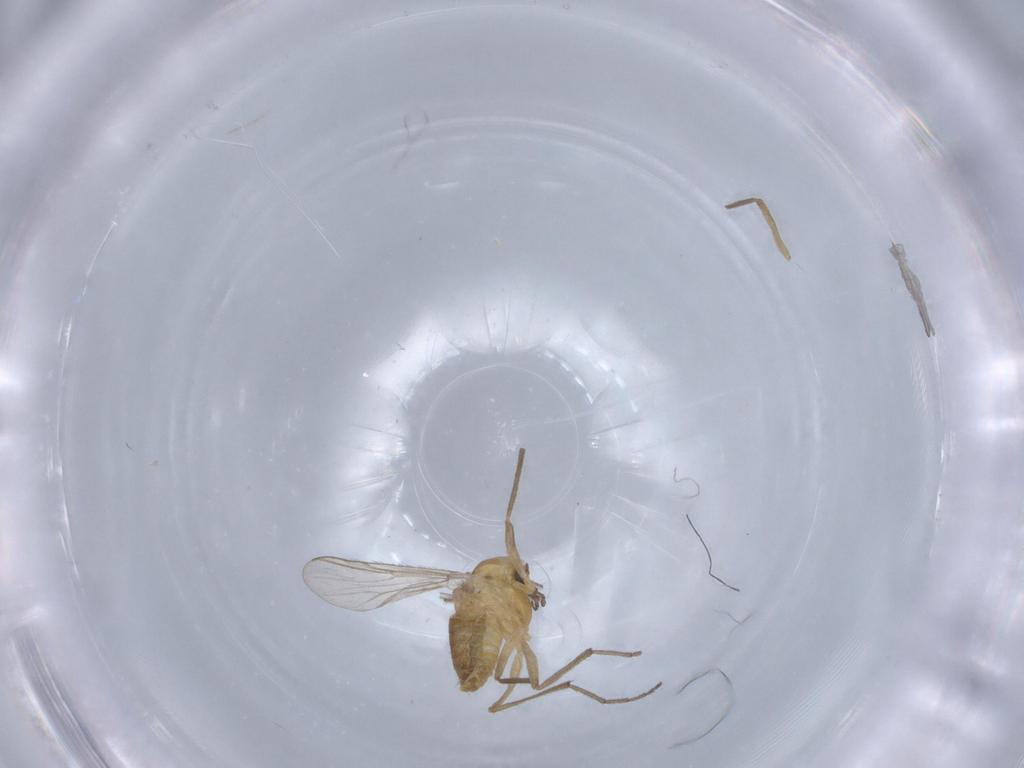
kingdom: Animalia
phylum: Arthropoda
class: Insecta
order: Diptera
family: Chironomidae
